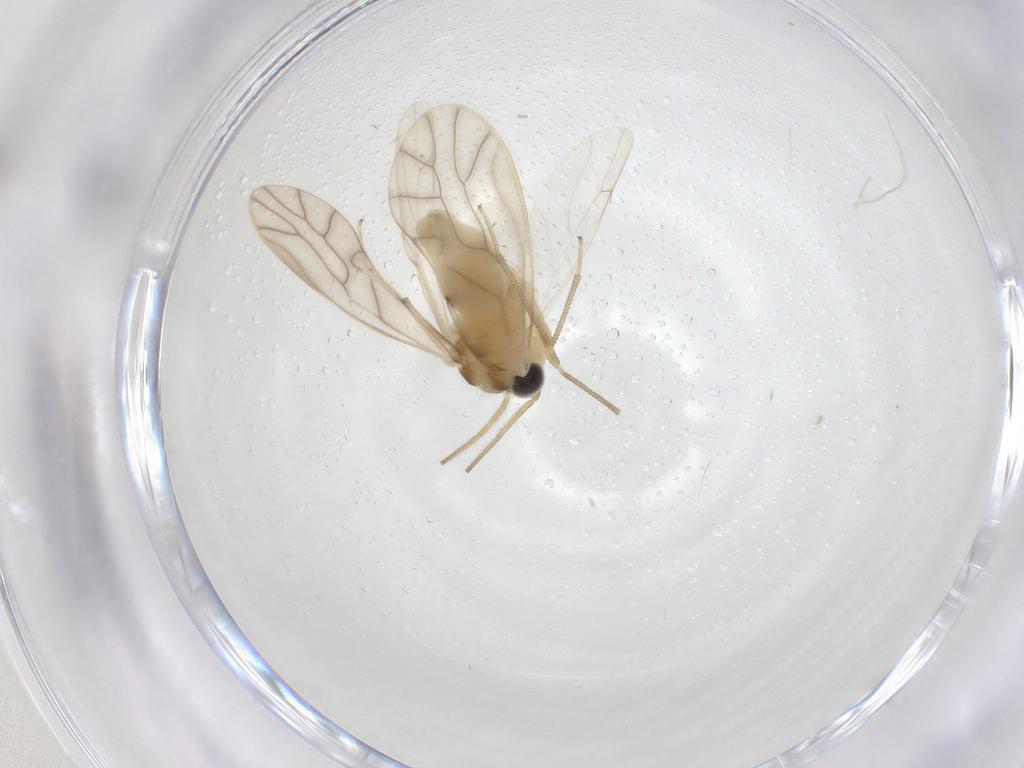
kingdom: Animalia
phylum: Arthropoda
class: Insecta
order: Psocodea
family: Caeciliusidae
